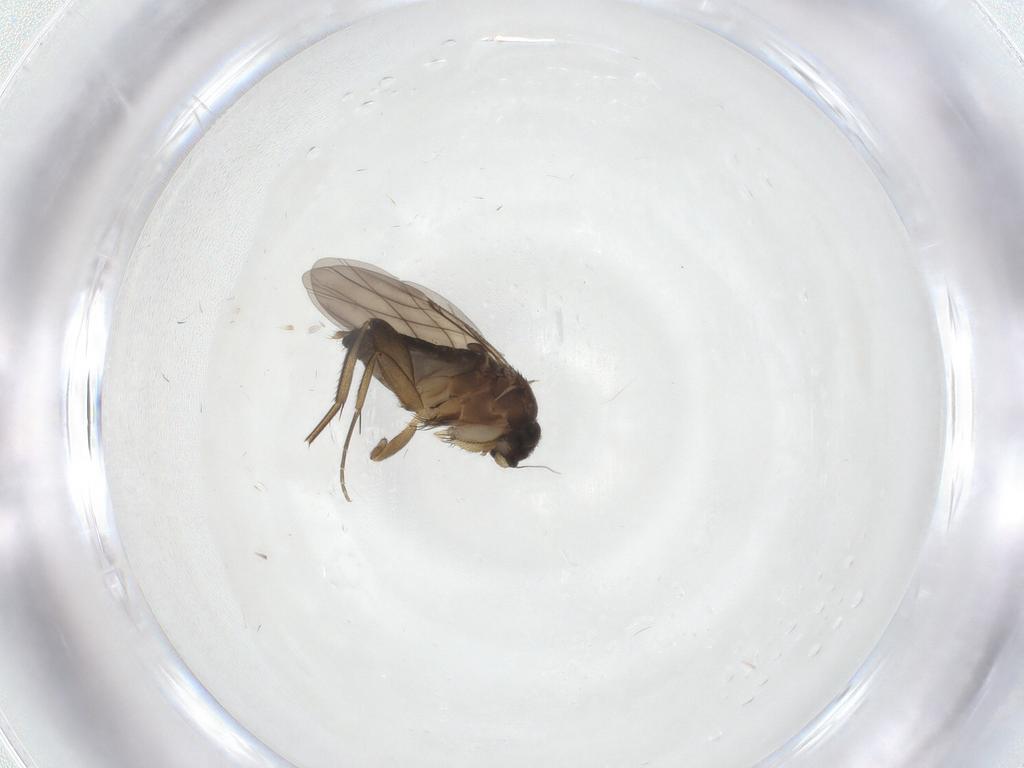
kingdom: Animalia
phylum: Arthropoda
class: Insecta
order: Diptera
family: Phoridae
